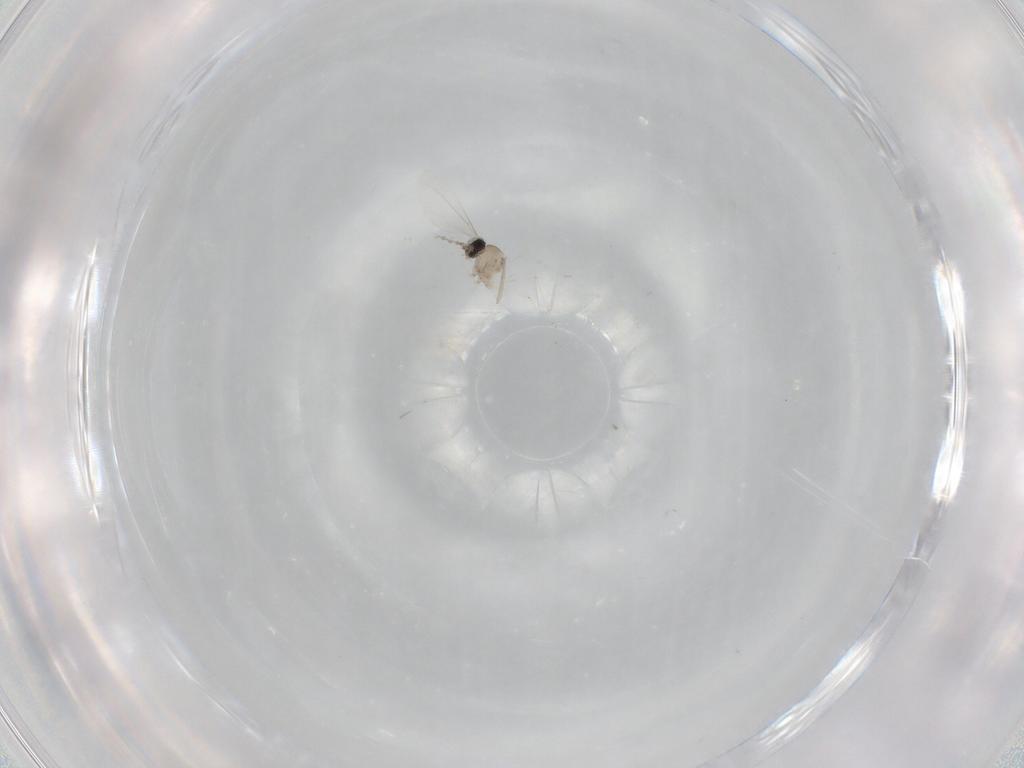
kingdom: Animalia
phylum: Arthropoda
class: Insecta
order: Diptera
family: Cecidomyiidae
